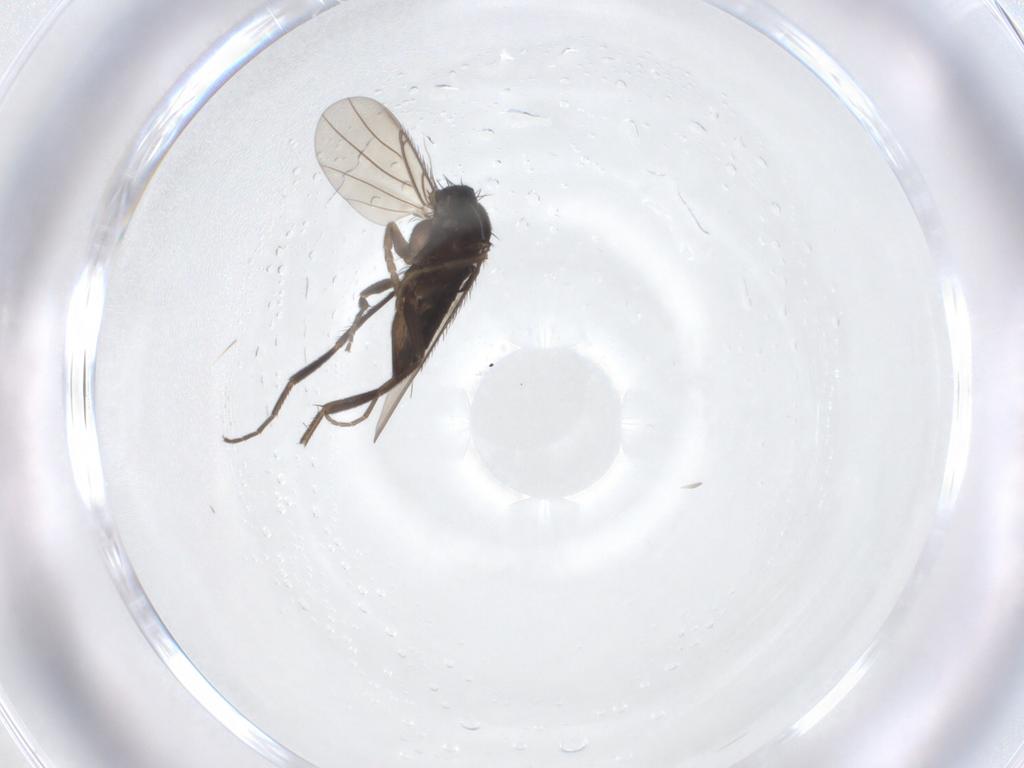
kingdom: Animalia
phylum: Arthropoda
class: Insecta
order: Diptera
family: Phoridae
